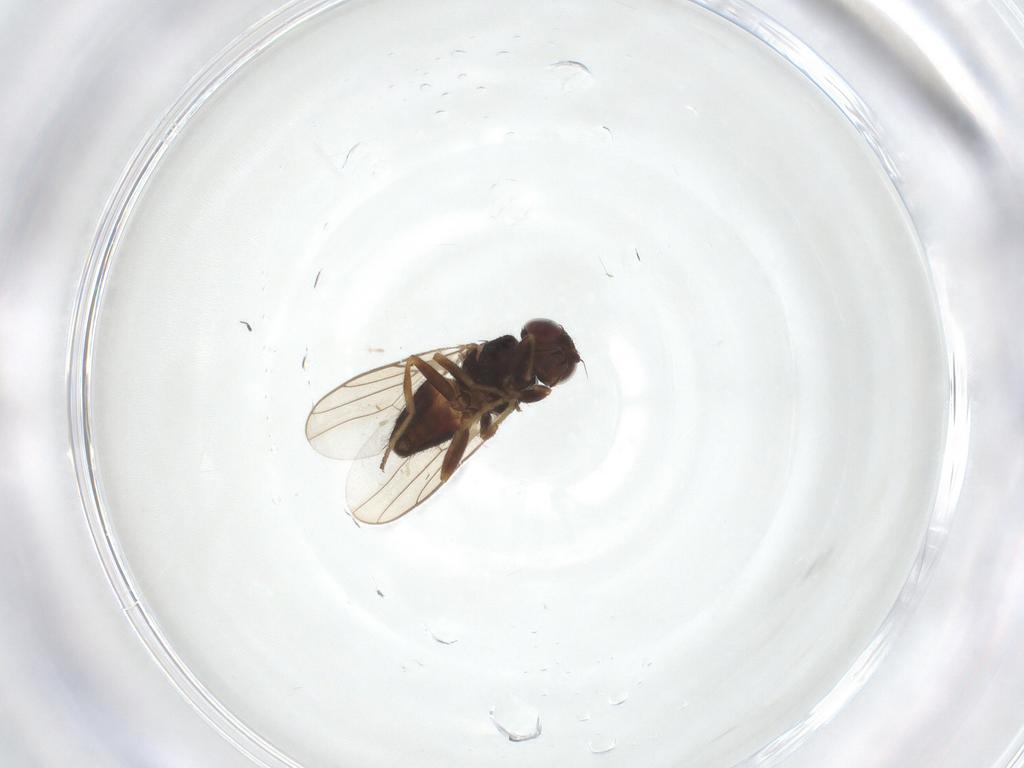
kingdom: Animalia
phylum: Arthropoda
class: Insecta
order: Diptera
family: Chloropidae
